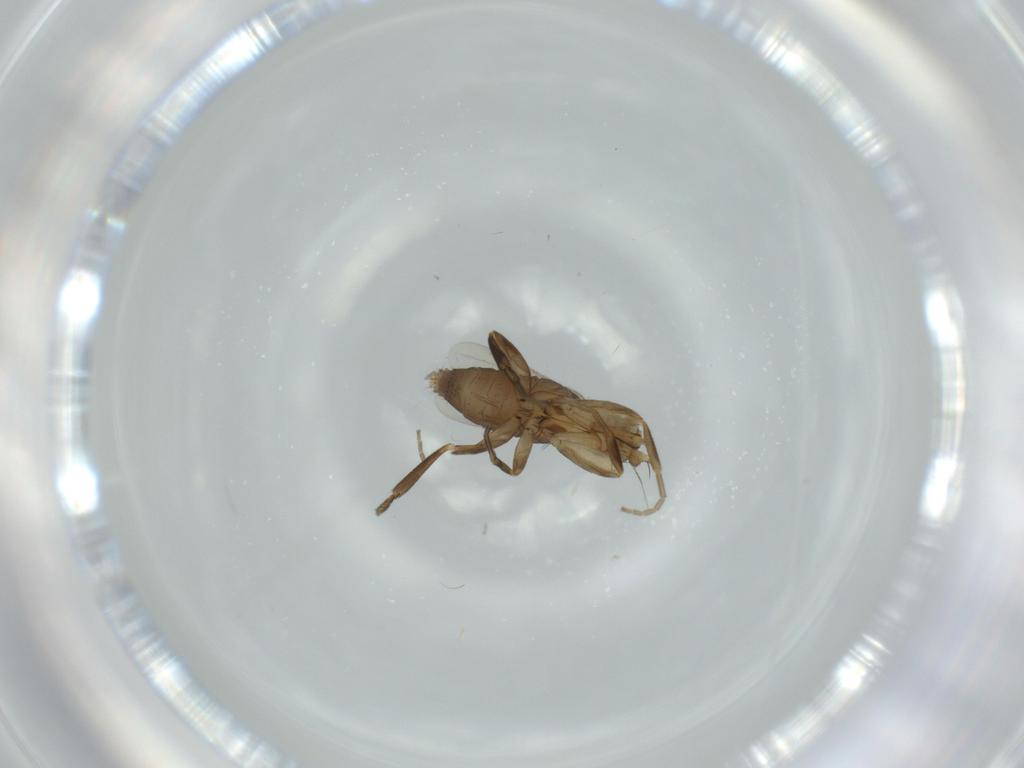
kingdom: Animalia
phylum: Arthropoda
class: Insecta
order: Diptera
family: Phoridae
